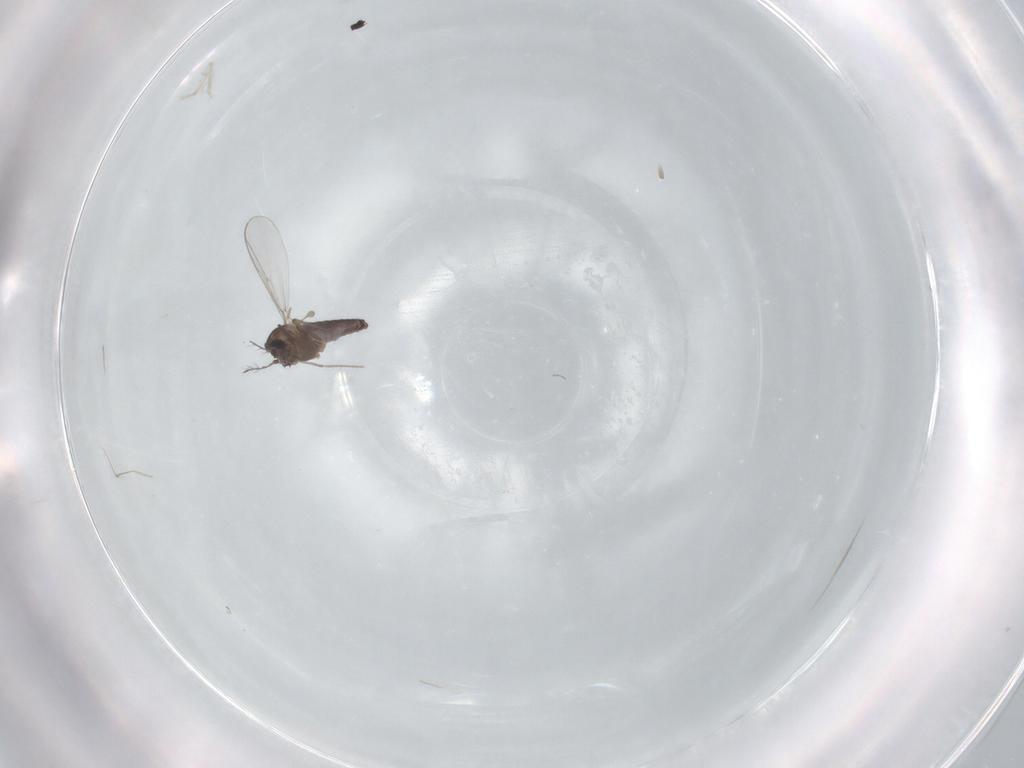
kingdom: Animalia
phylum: Arthropoda
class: Insecta
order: Diptera
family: Chironomidae
